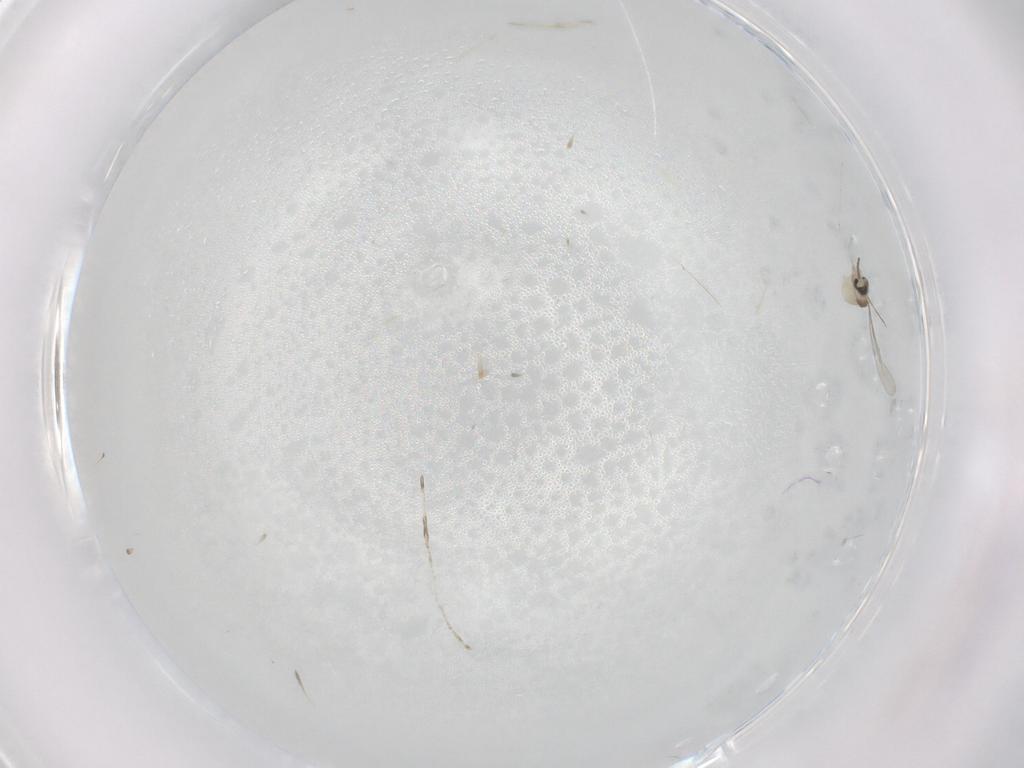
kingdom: Animalia
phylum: Arthropoda
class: Insecta
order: Diptera
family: Cecidomyiidae
